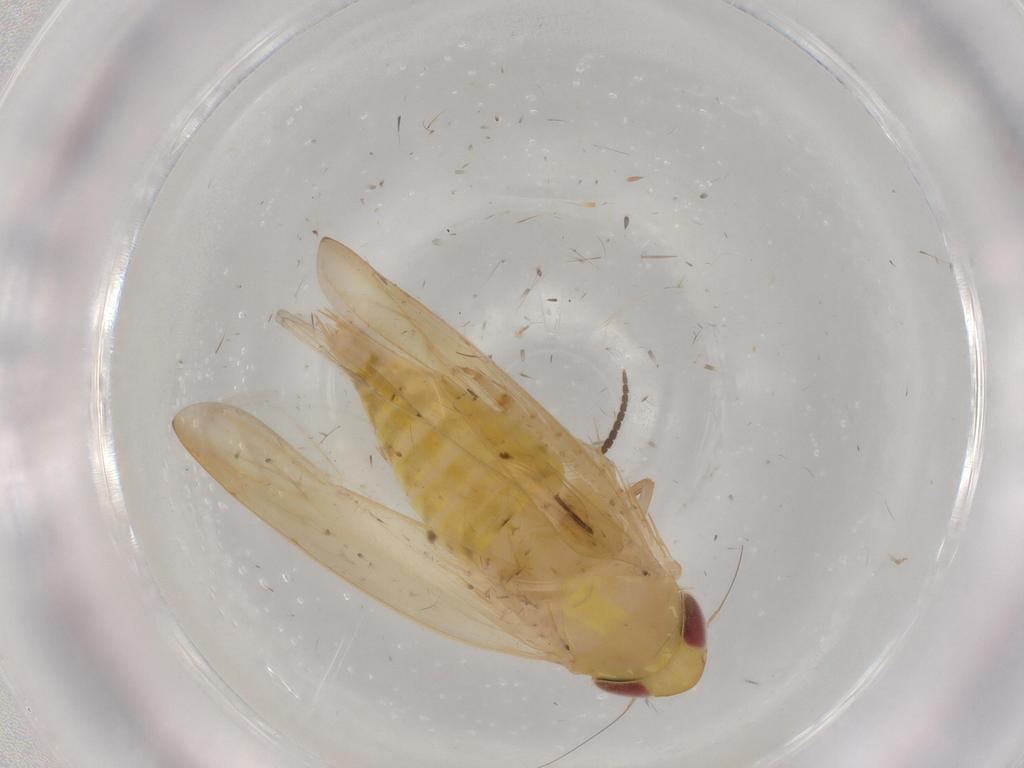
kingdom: Animalia
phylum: Arthropoda
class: Insecta
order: Hemiptera
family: Cicadellidae
